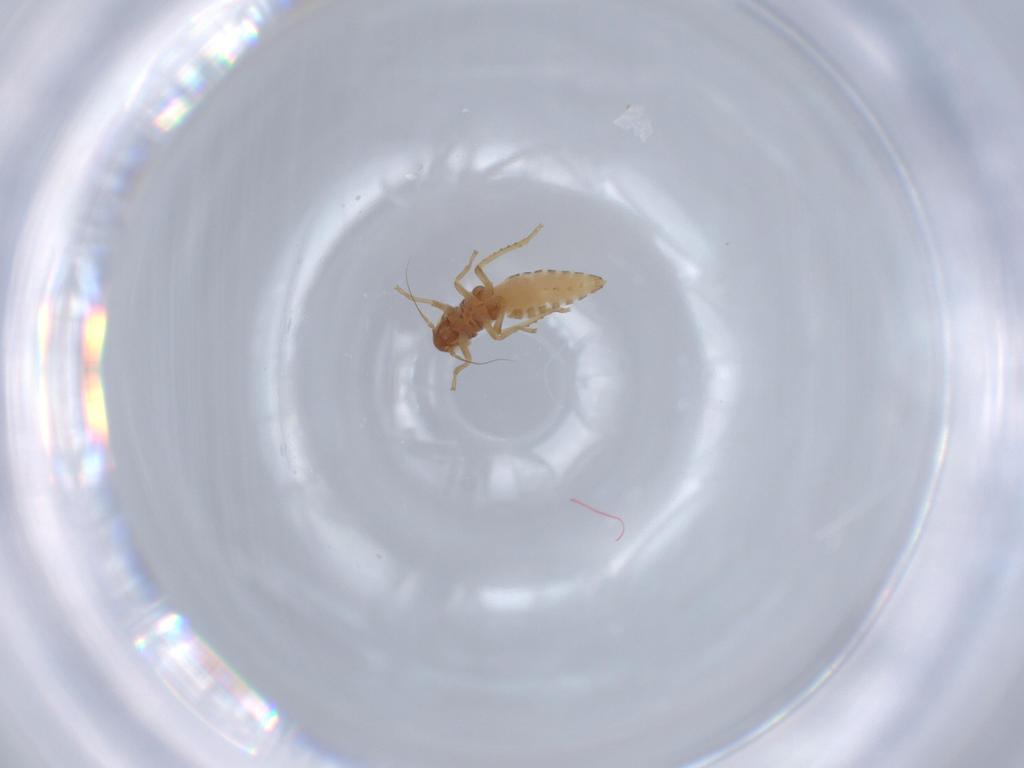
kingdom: Animalia
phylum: Arthropoda
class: Insecta
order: Hemiptera
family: Cicadellidae
